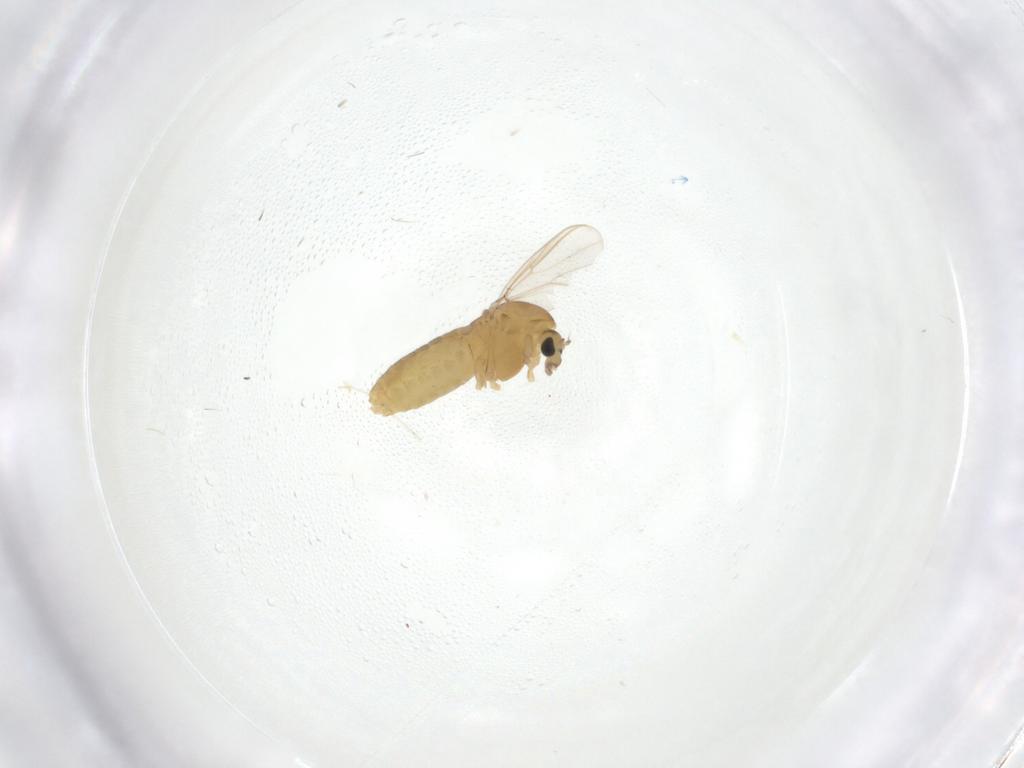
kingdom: Animalia
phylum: Arthropoda
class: Insecta
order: Diptera
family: Chironomidae
